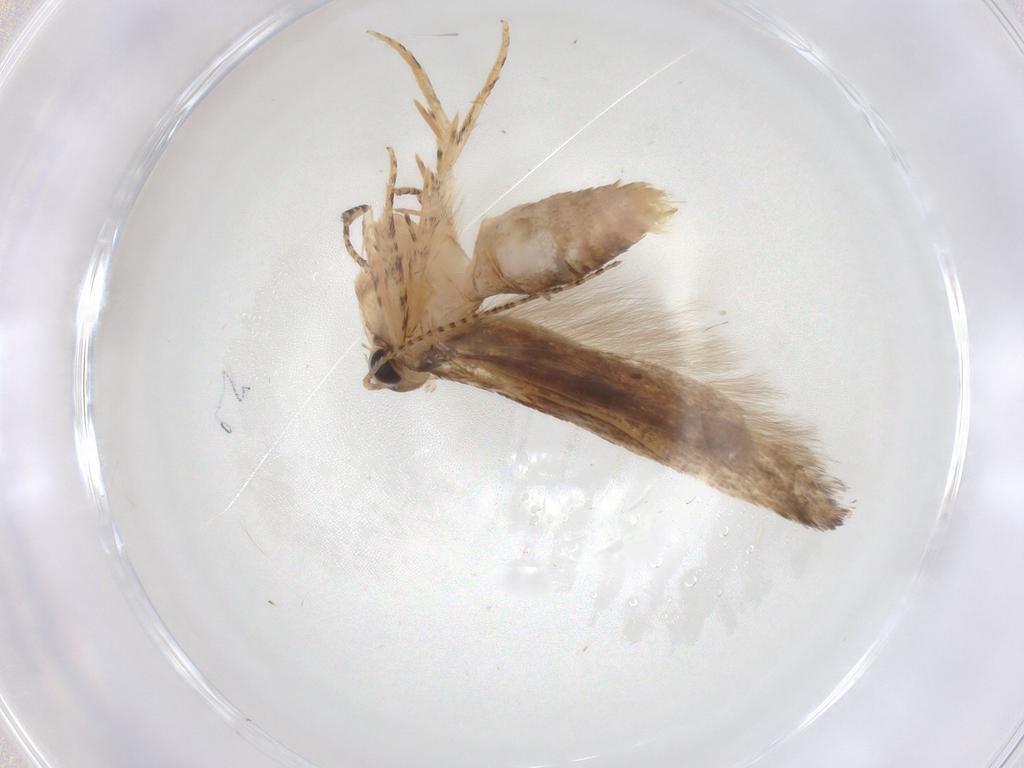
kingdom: Animalia
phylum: Arthropoda
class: Insecta
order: Lepidoptera
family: Gelechiidae
